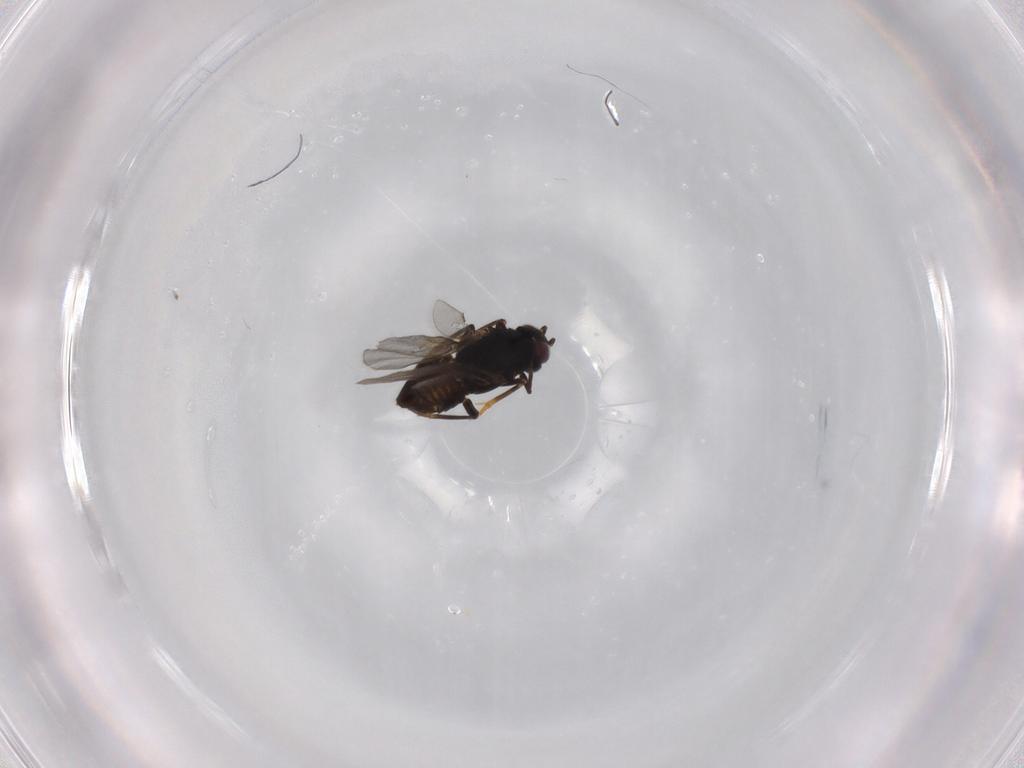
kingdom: Animalia
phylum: Arthropoda
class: Insecta
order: Hymenoptera
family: Encyrtidae
